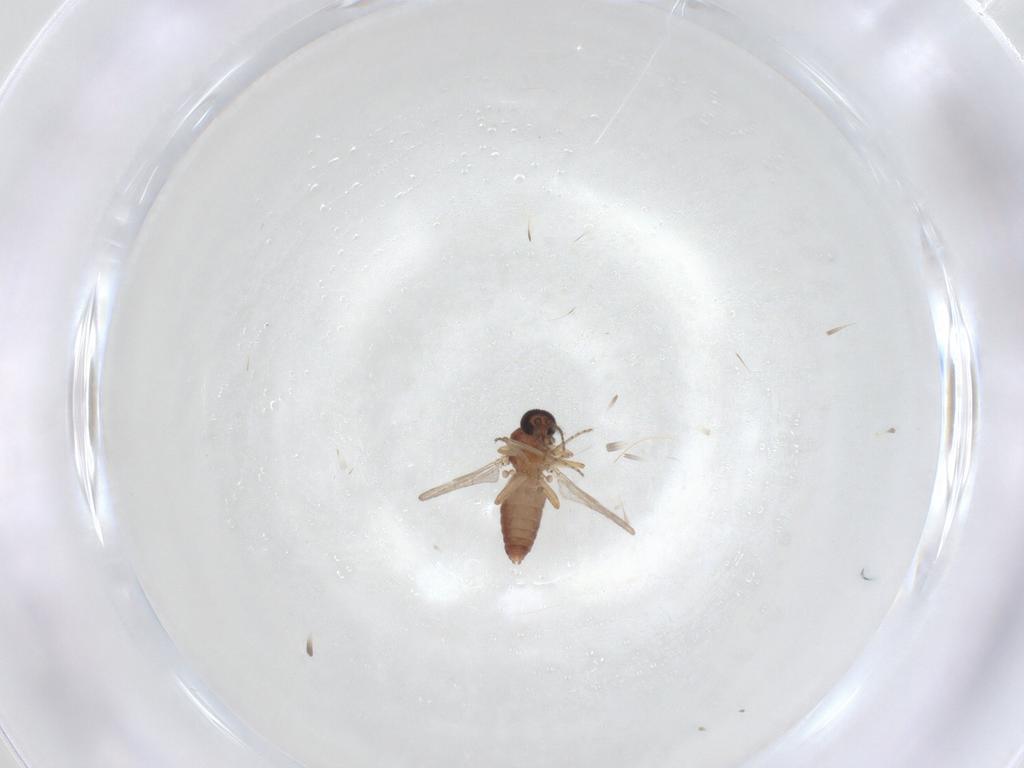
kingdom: Animalia
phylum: Arthropoda
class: Insecta
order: Diptera
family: Ceratopogonidae
